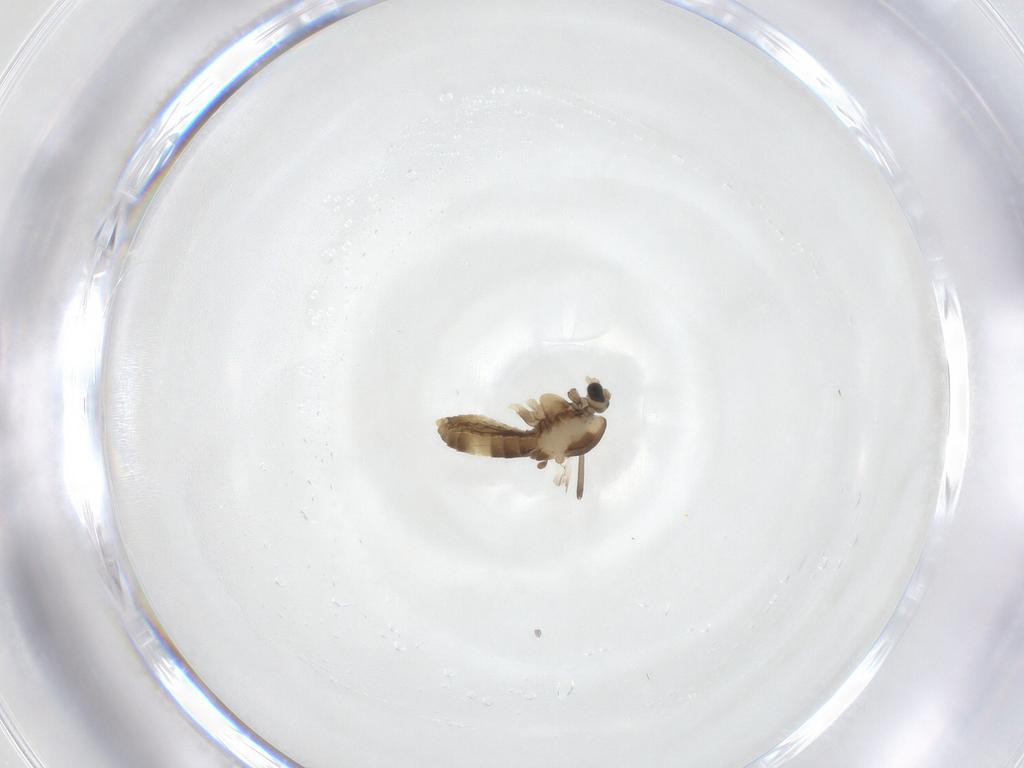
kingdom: Animalia
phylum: Arthropoda
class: Insecta
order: Diptera
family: Chironomidae
